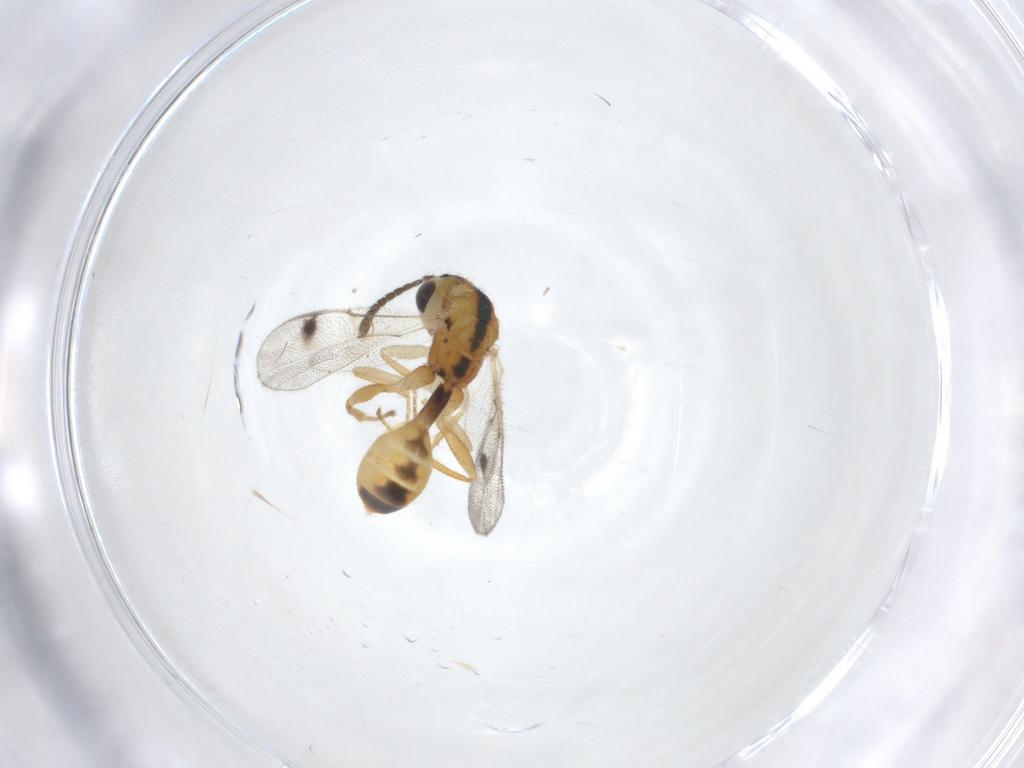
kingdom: Animalia
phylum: Arthropoda
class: Insecta
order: Hymenoptera
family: Megastigmidae
